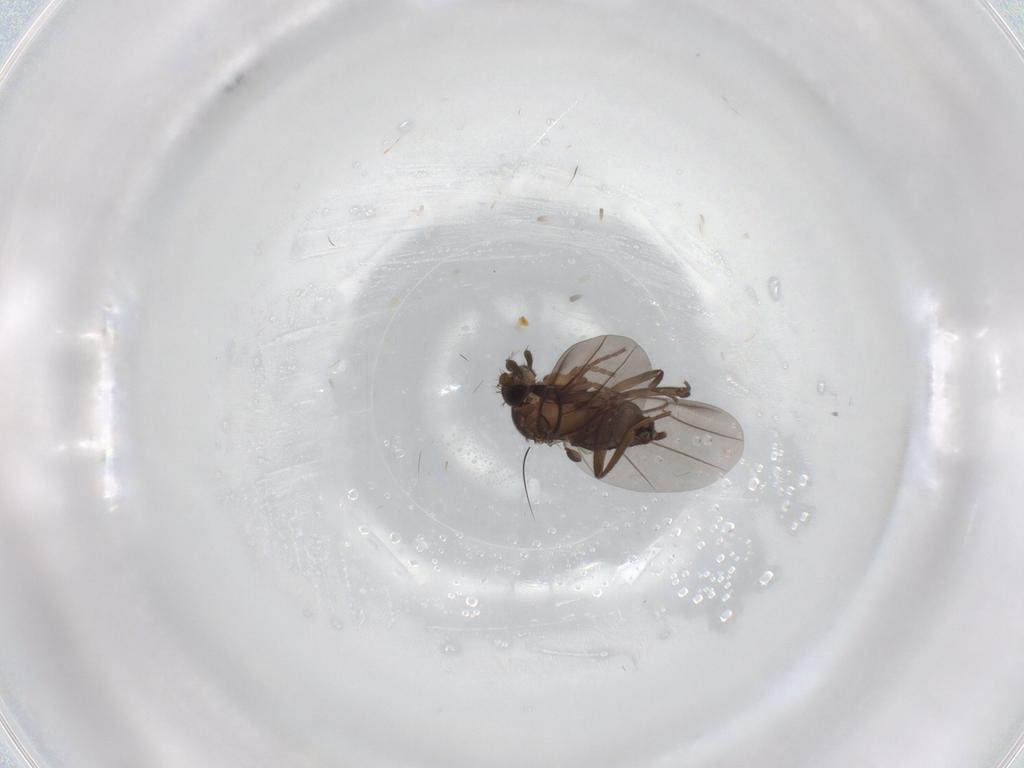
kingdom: Animalia
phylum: Arthropoda
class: Insecta
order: Diptera
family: Phoridae
